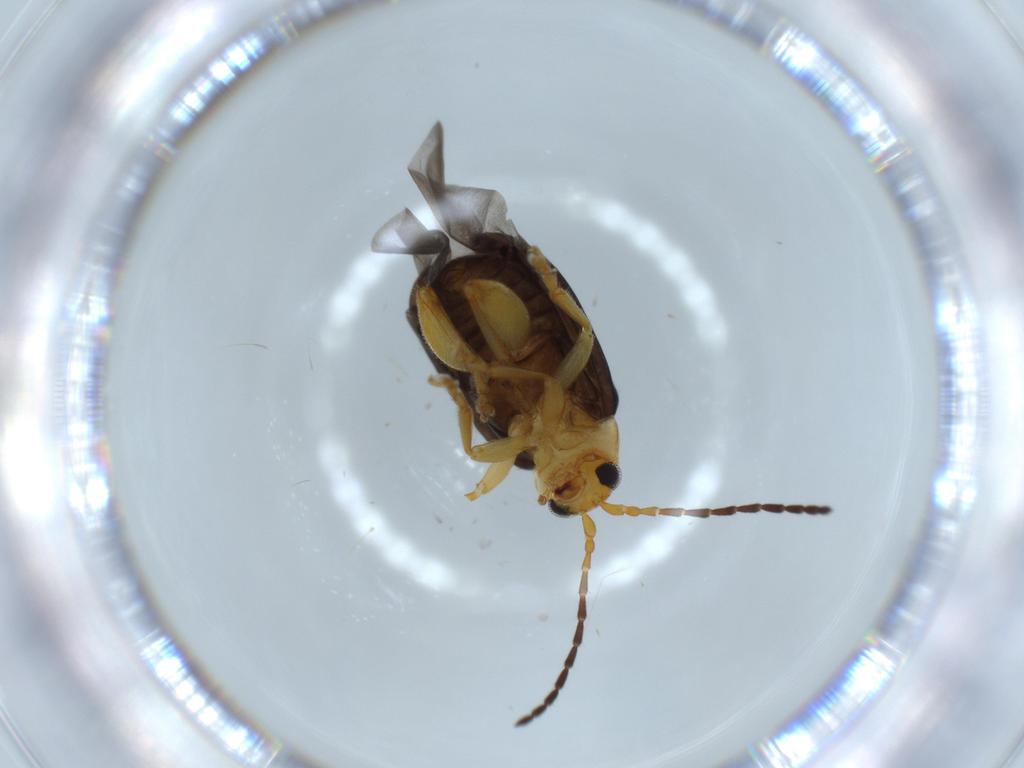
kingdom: Animalia
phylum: Arthropoda
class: Insecta
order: Coleoptera
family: Chrysomelidae
